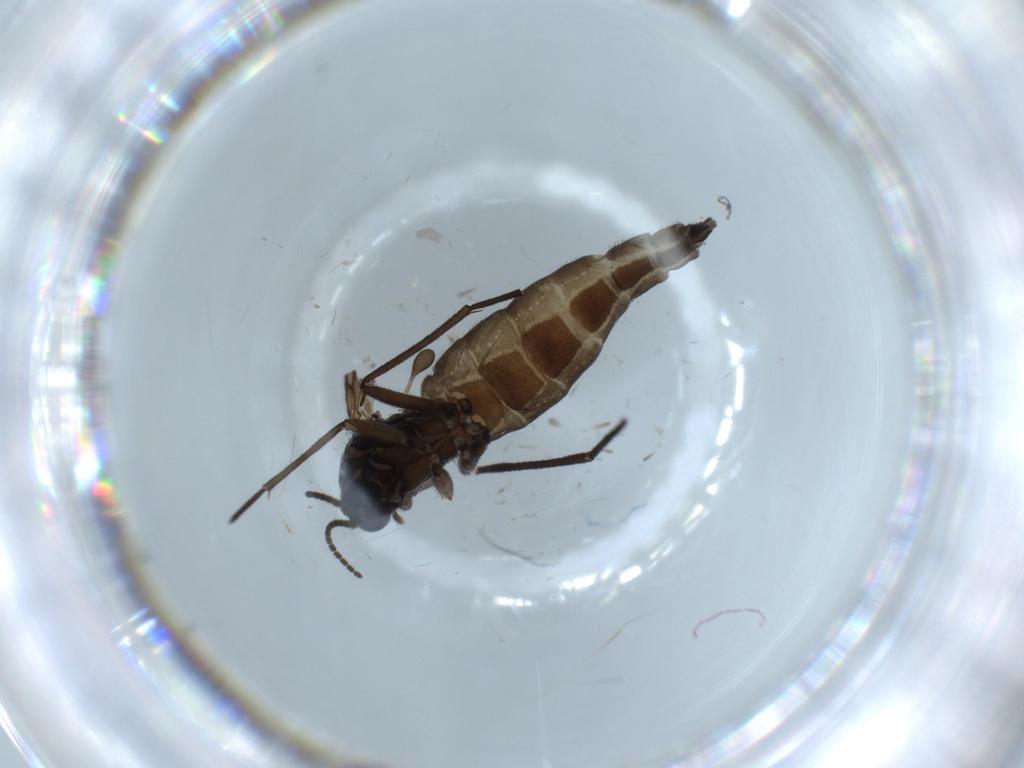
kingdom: Animalia
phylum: Arthropoda
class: Insecta
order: Diptera
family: Sciaridae
